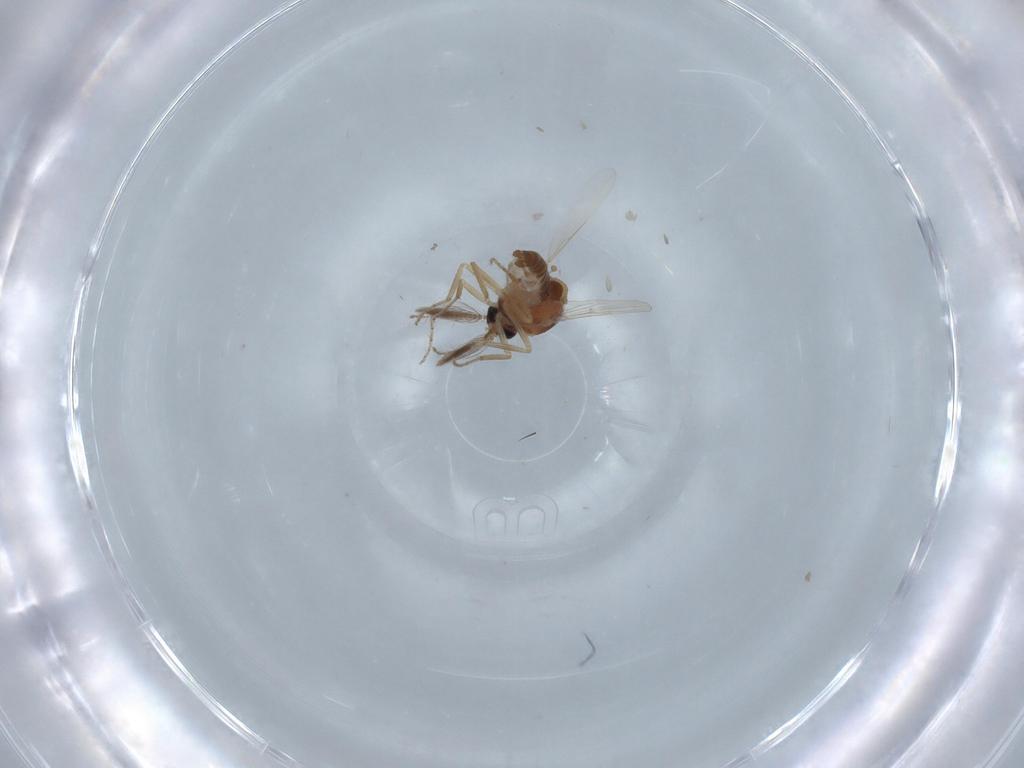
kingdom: Animalia
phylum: Arthropoda
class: Insecta
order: Diptera
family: Ceratopogonidae
